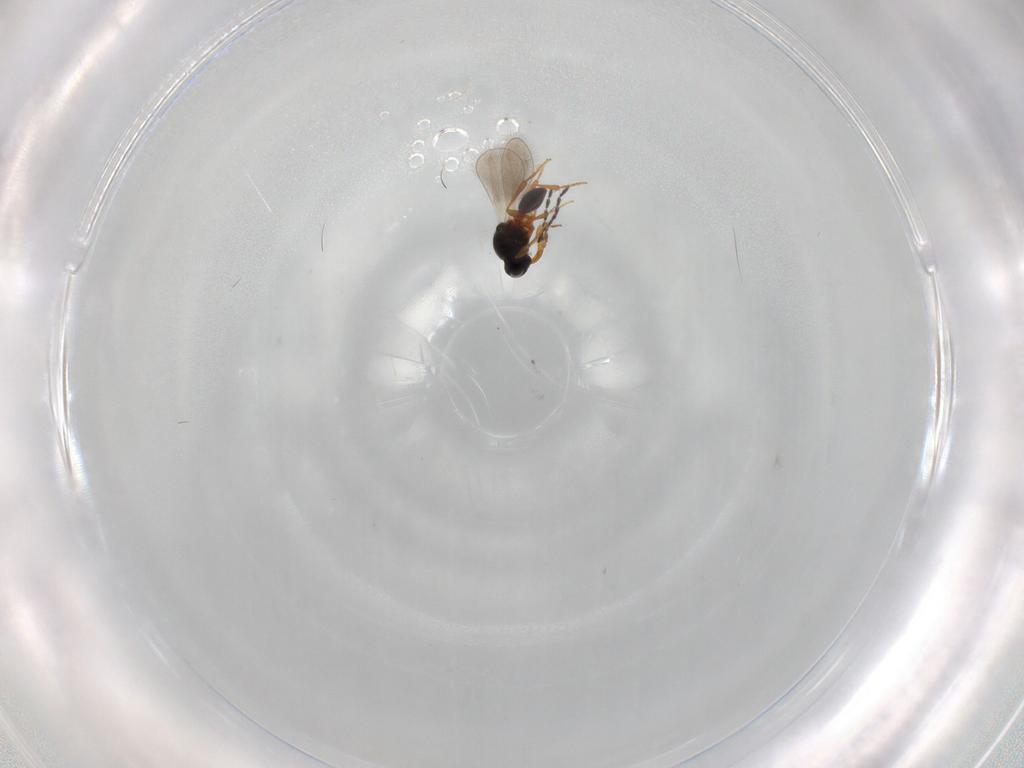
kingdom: Animalia
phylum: Arthropoda
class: Insecta
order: Hymenoptera
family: Platygastridae
